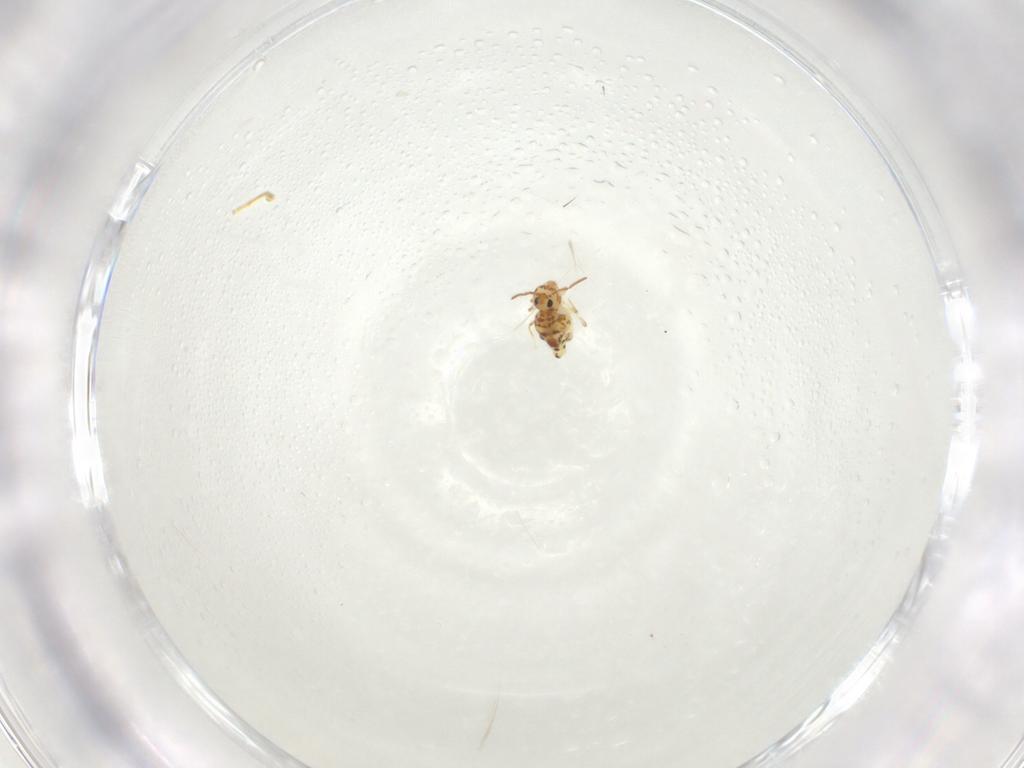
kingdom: Animalia
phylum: Arthropoda
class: Collembola
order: Symphypleona
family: Bourletiellidae
